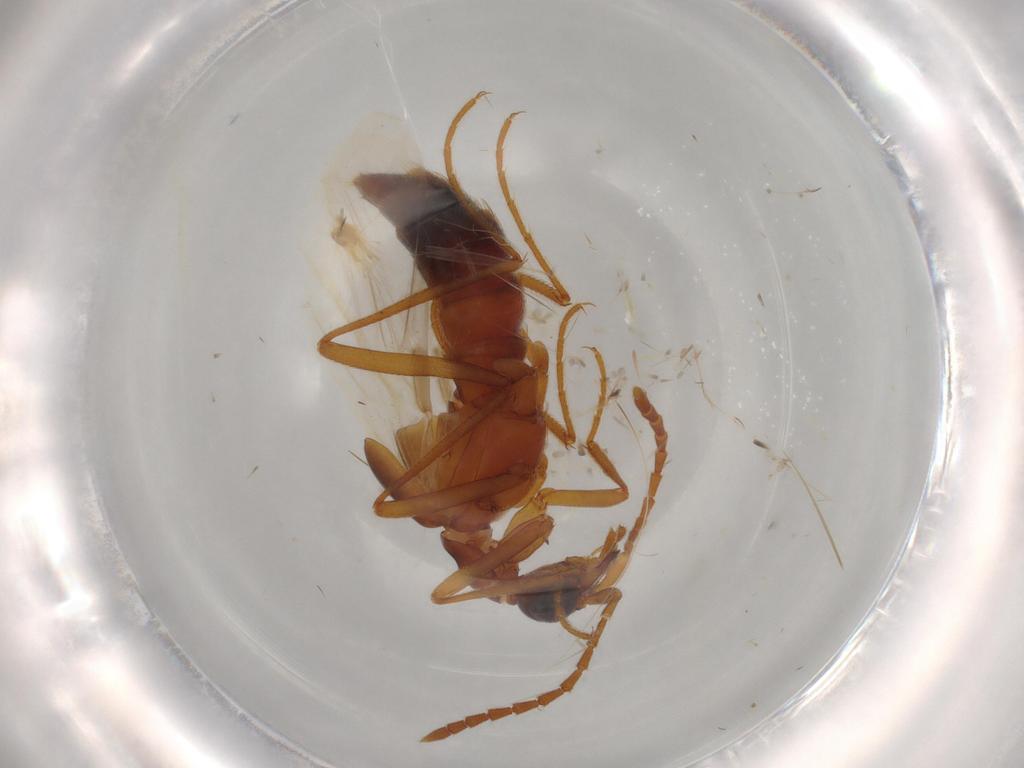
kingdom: Animalia
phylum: Arthropoda
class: Insecta
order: Coleoptera
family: Staphylinidae
